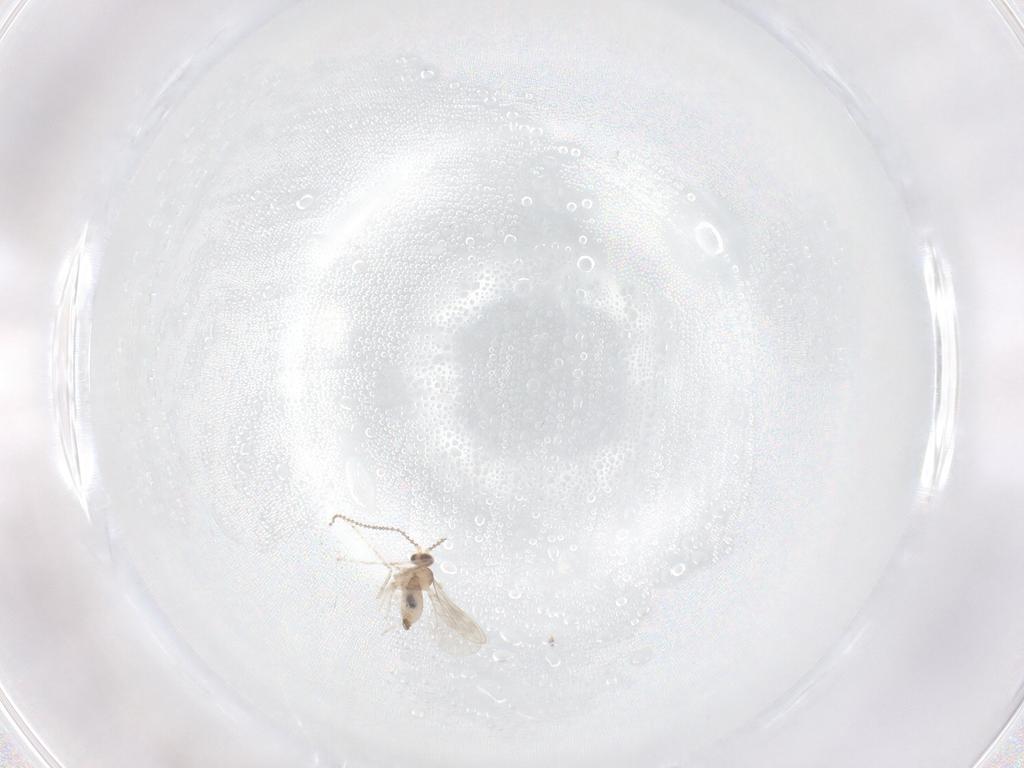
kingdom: Animalia
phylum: Arthropoda
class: Insecta
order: Diptera
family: Cecidomyiidae
